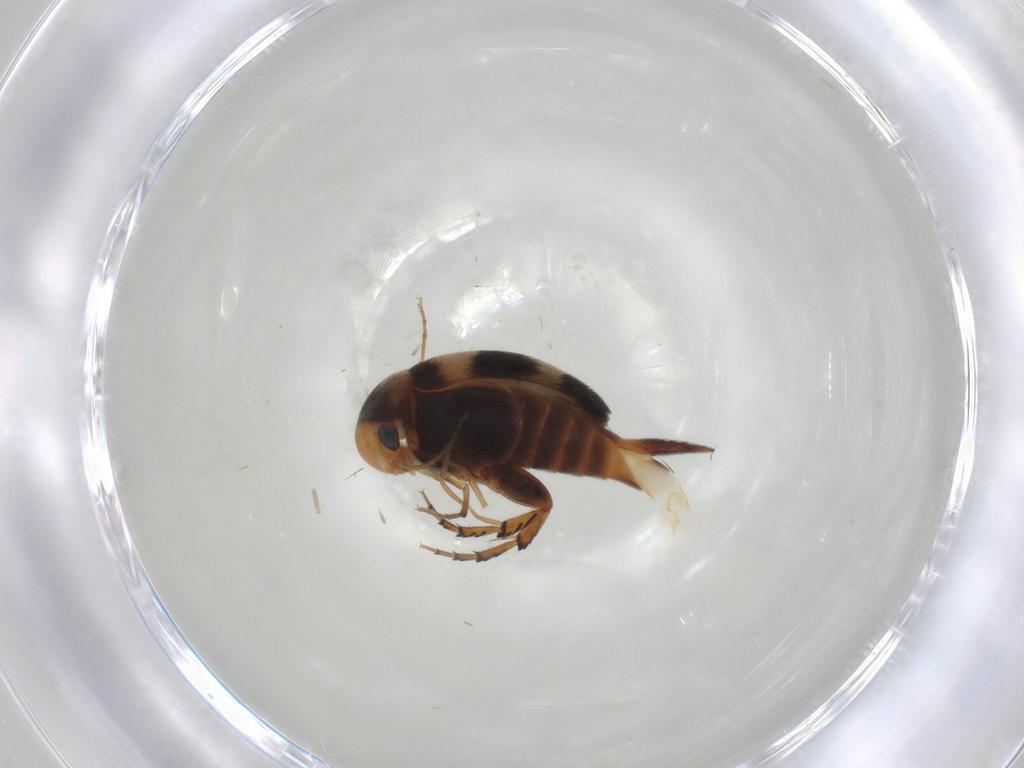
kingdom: Animalia
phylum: Arthropoda
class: Insecta
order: Coleoptera
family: Mordellidae
